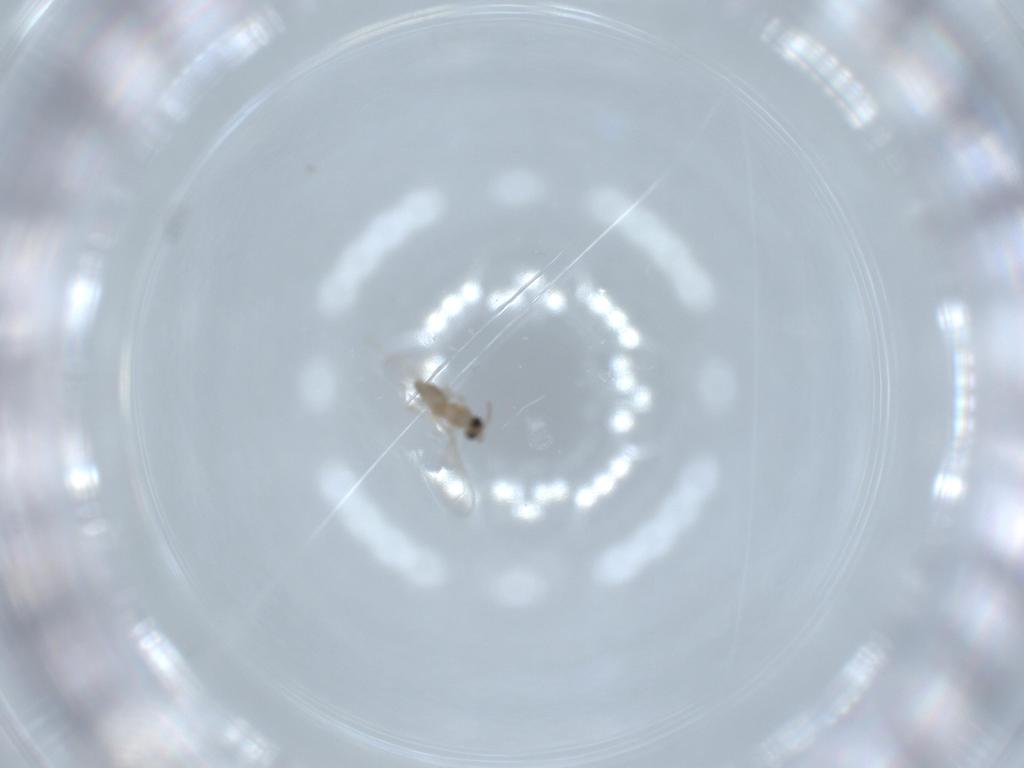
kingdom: Animalia
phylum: Arthropoda
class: Insecta
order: Diptera
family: Cecidomyiidae
